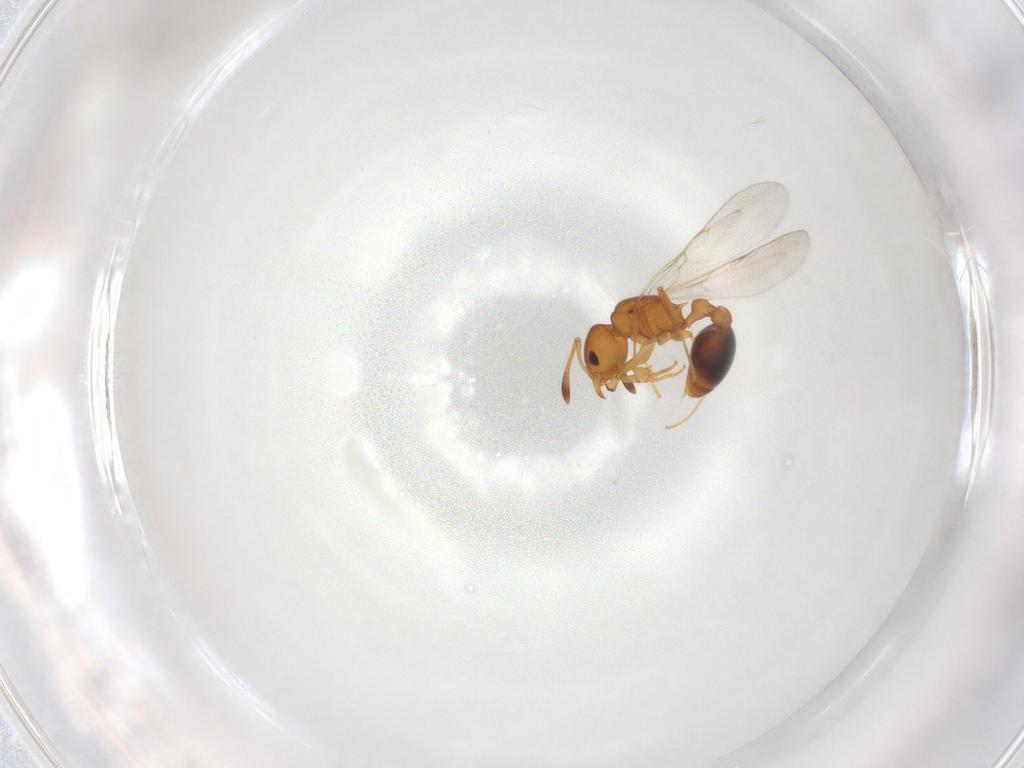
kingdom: Animalia
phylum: Arthropoda
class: Insecta
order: Hymenoptera
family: Formicidae
